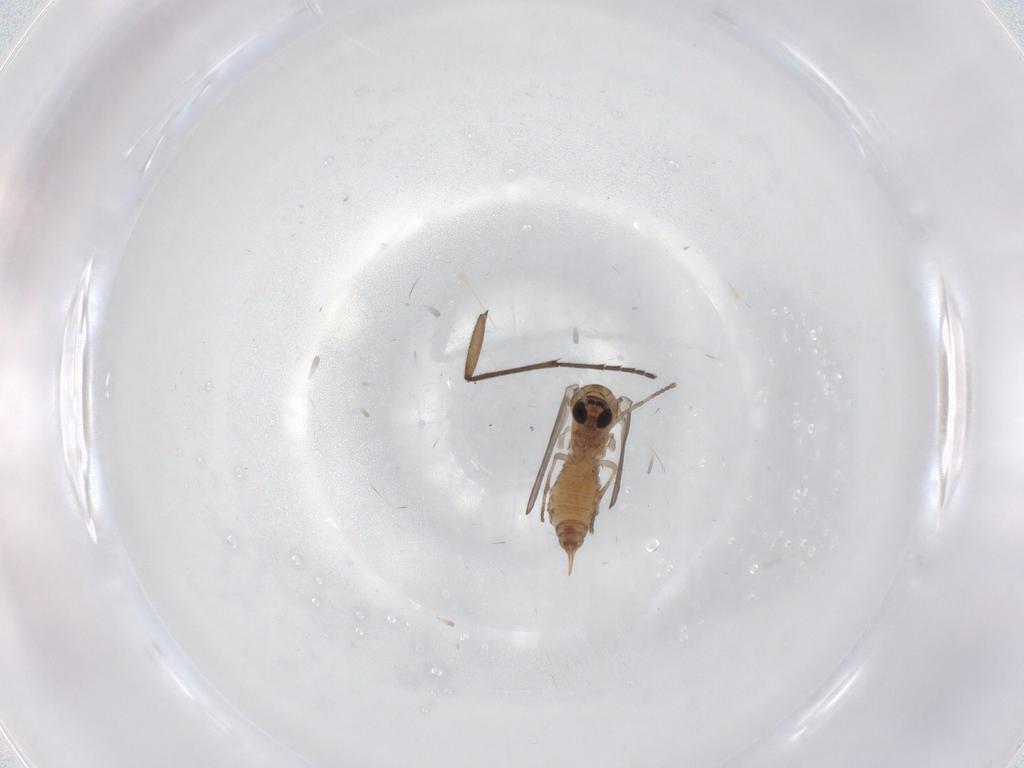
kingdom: Animalia
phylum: Arthropoda
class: Insecta
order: Diptera
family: Psychodidae
